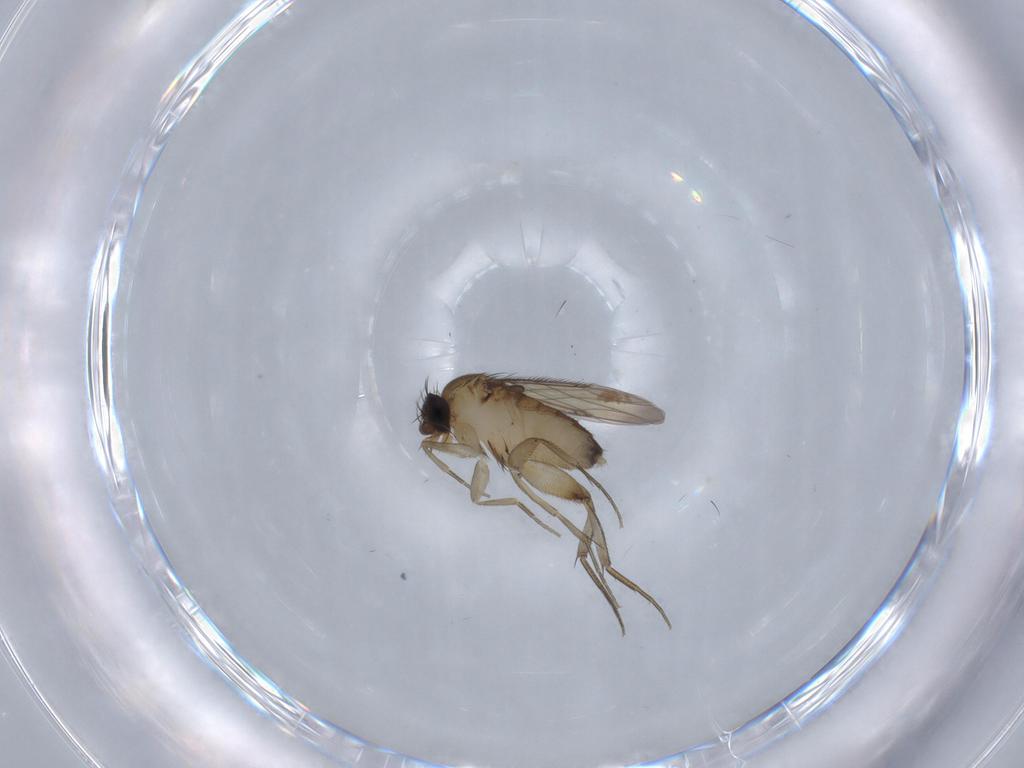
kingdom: Animalia
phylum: Arthropoda
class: Insecta
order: Diptera
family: Phoridae
